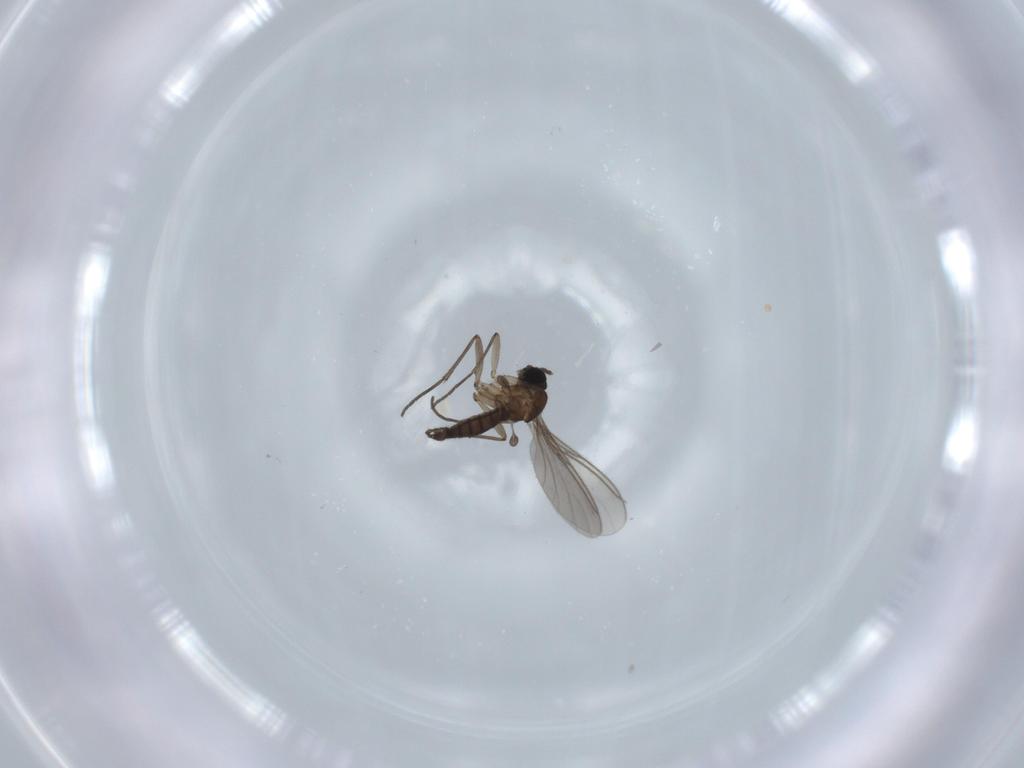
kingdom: Animalia
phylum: Arthropoda
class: Insecta
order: Diptera
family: Sciaridae
